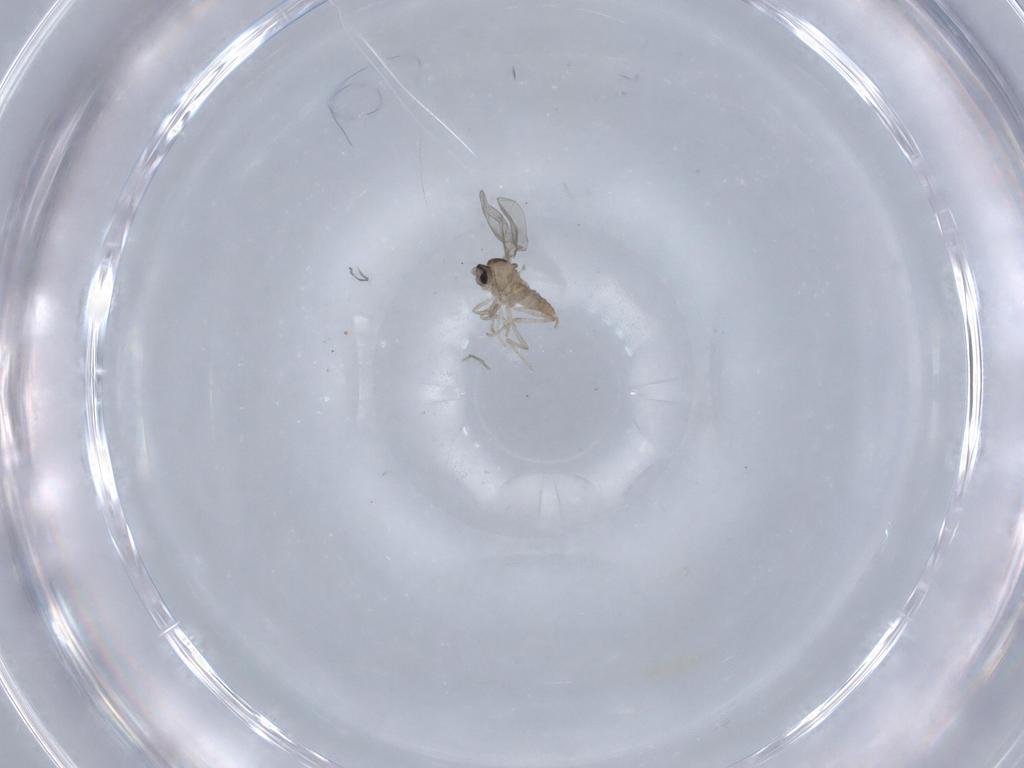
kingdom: Animalia
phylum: Arthropoda
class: Insecta
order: Diptera
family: Cecidomyiidae
